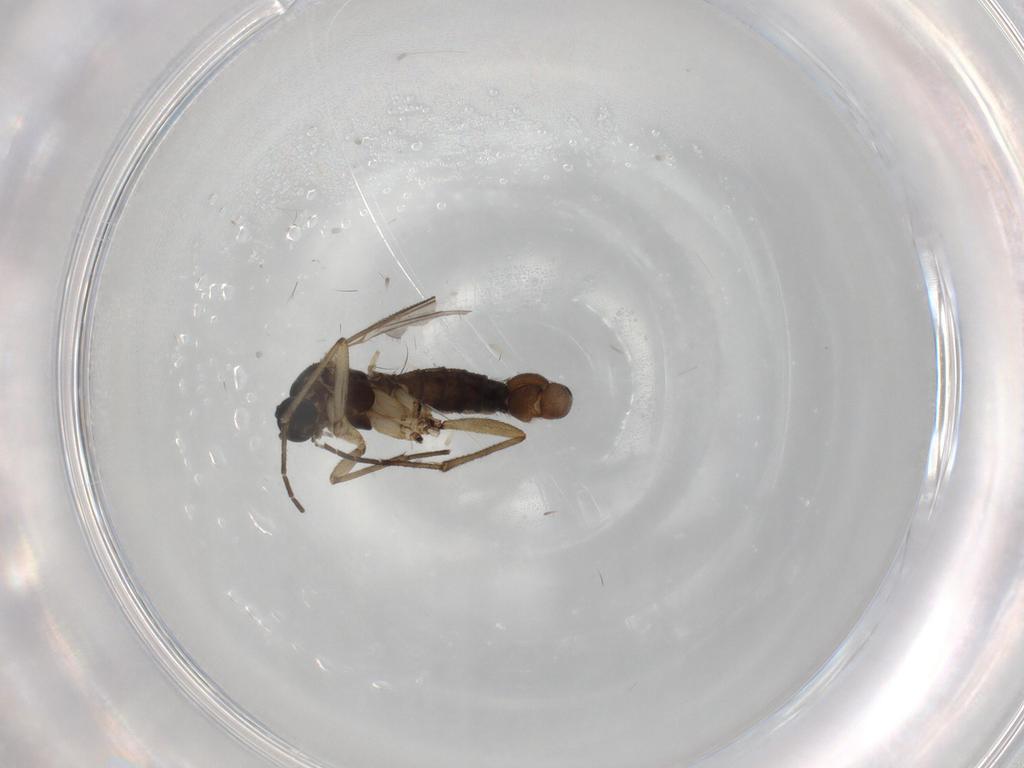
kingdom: Animalia
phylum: Arthropoda
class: Insecta
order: Diptera
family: Sciaridae
